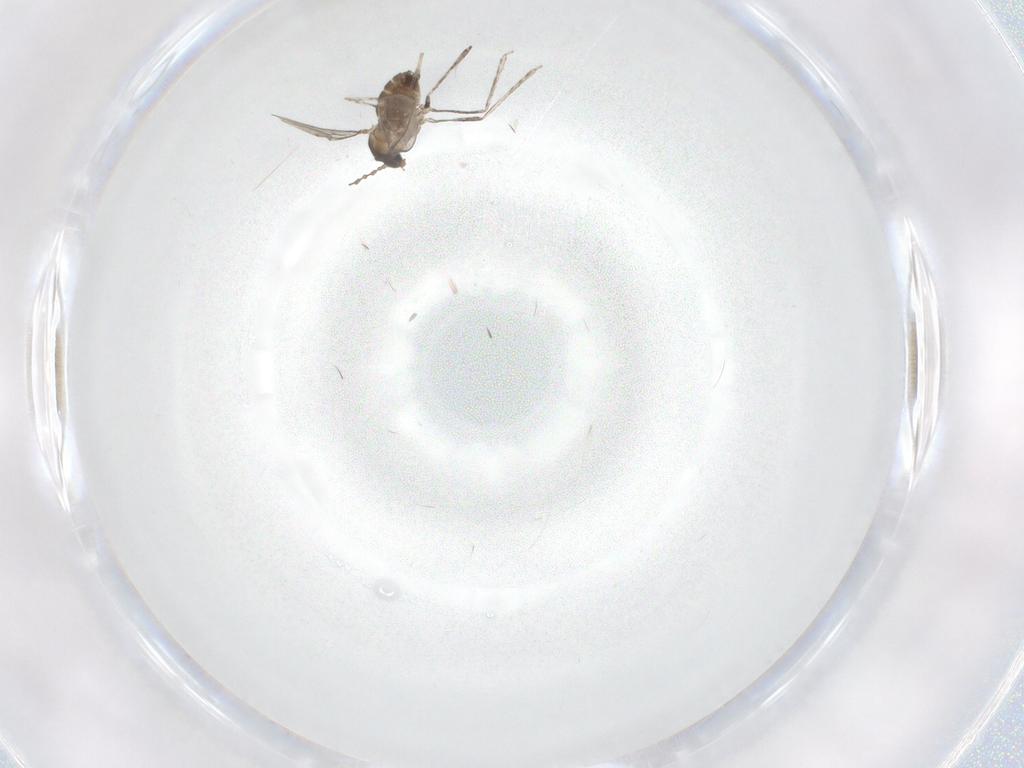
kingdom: Animalia
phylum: Arthropoda
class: Insecta
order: Diptera
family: Cecidomyiidae
